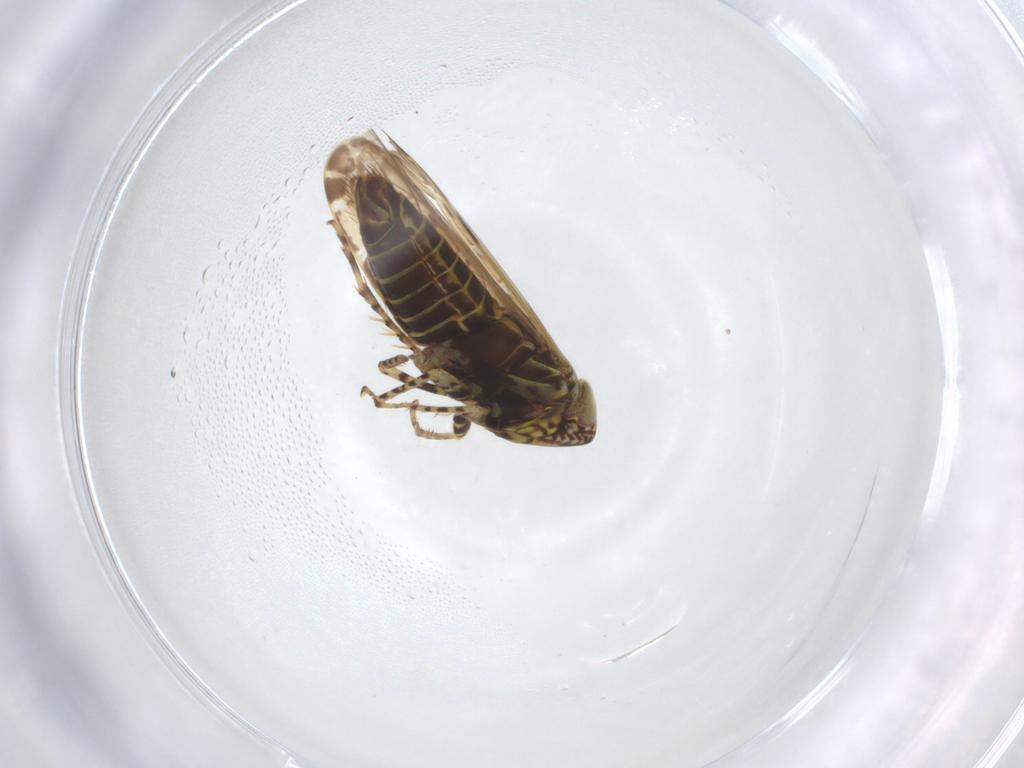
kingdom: Animalia
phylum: Arthropoda
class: Insecta
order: Hemiptera
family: Cicadellidae
